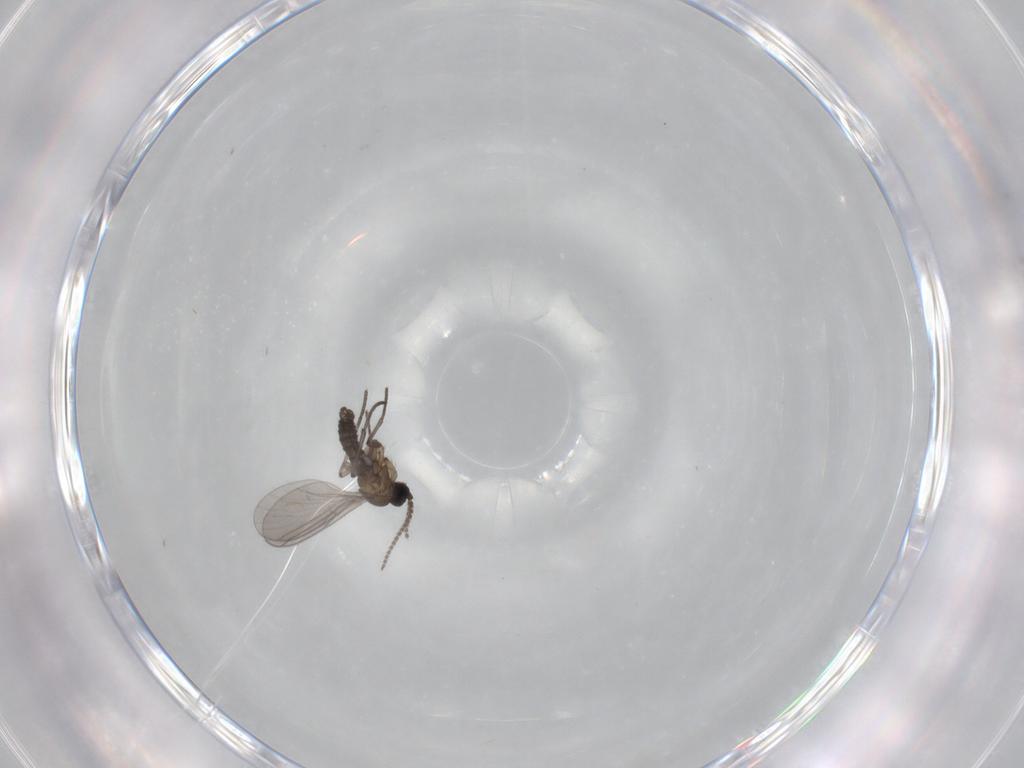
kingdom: Animalia
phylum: Arthropoda
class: Insecta
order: Diptera
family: Cecidomyiidae
